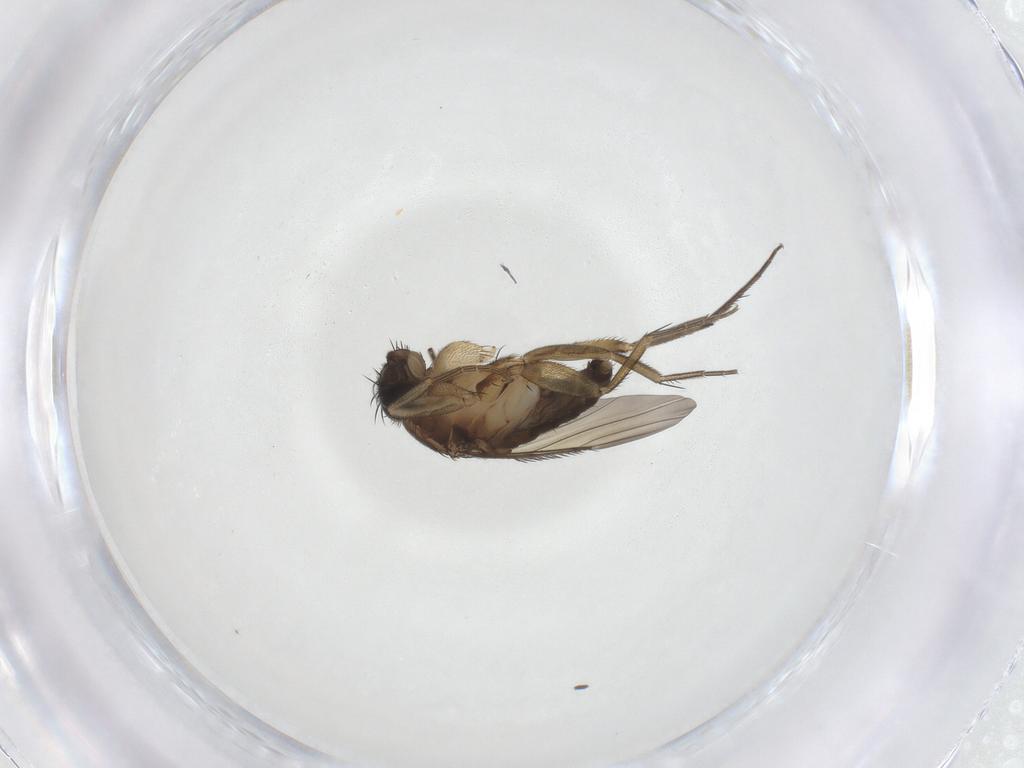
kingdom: Animalia
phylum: Arthropoda
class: Insecta
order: Diptera
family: Phoridae
